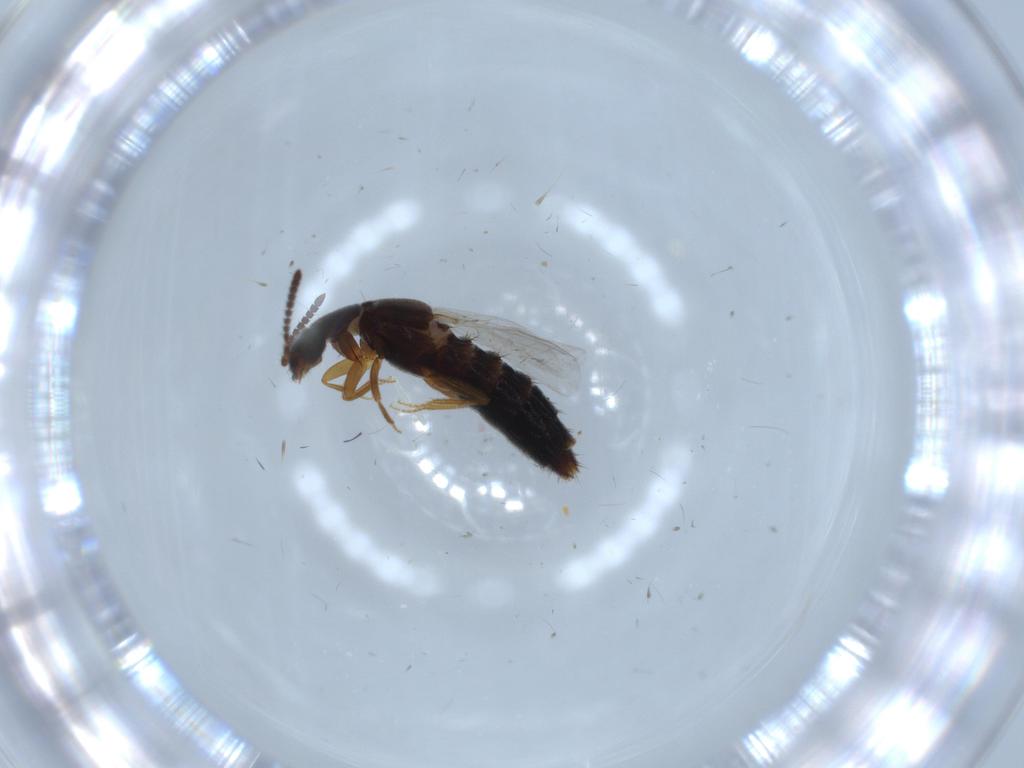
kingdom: Animalia
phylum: Arthropoda
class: Insecta
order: Coleoptera
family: Chrysomelidae
